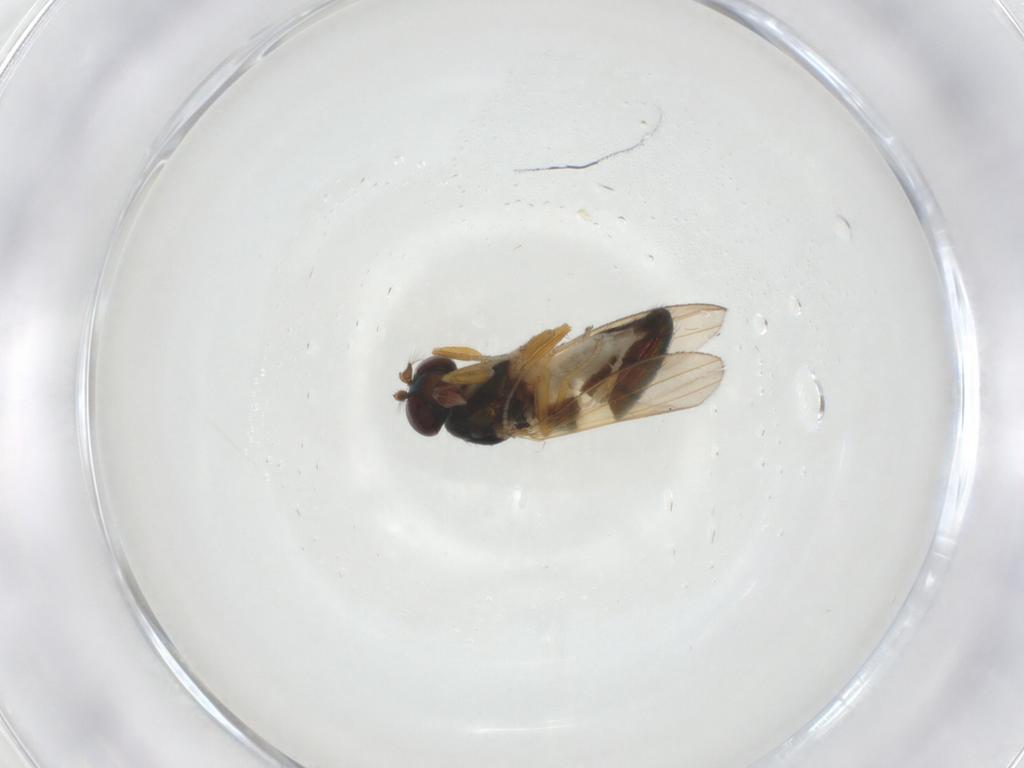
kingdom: Animalia
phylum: Arthropoda
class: Insecta
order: Diptera
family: Ephydridae
